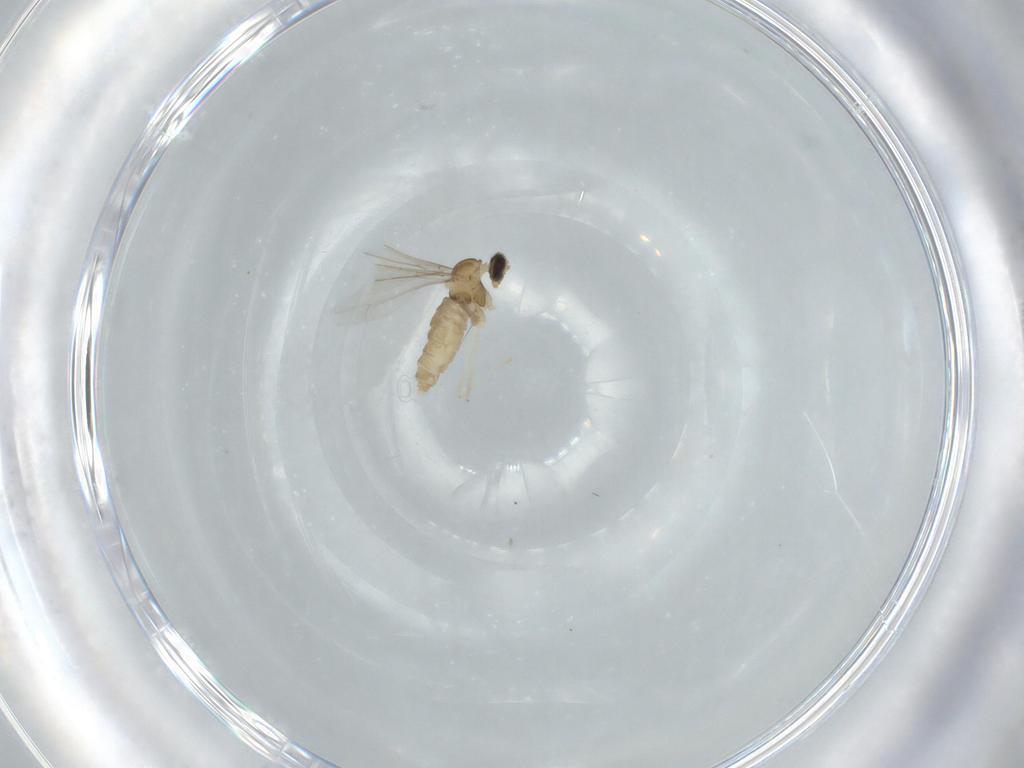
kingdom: Animalia
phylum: Arthropoda
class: Insecta
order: Diptera
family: Cecidomyiidae
